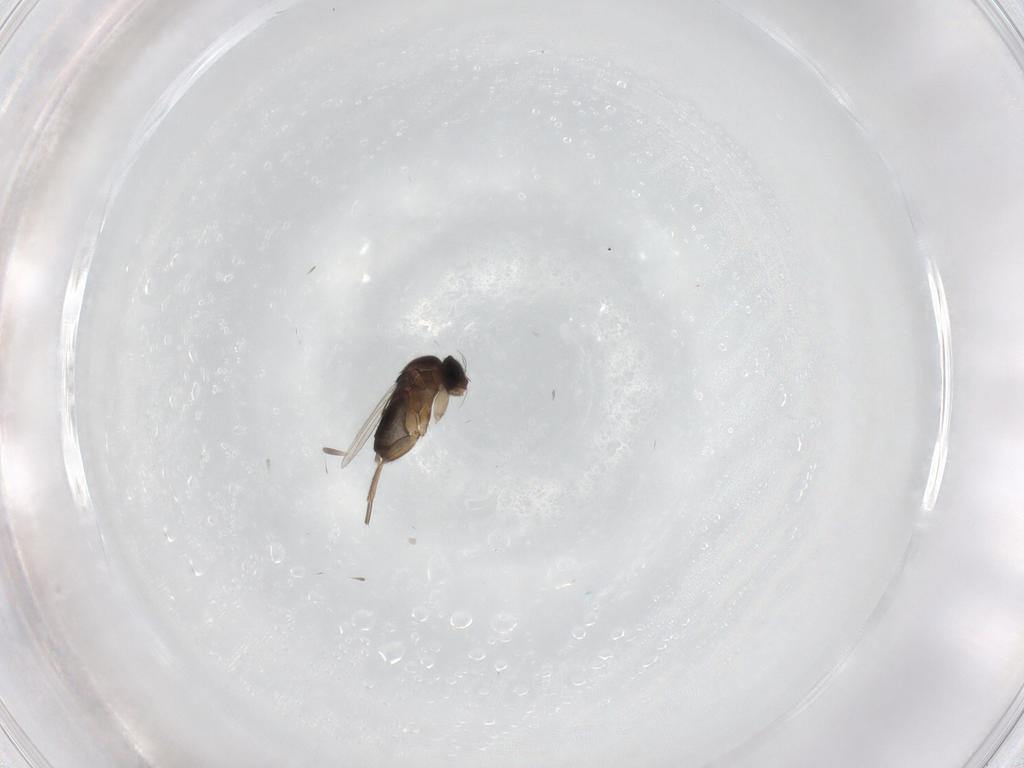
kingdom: Animalia
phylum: Arthropoda
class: Insecta
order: Diptera
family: Phoridae
